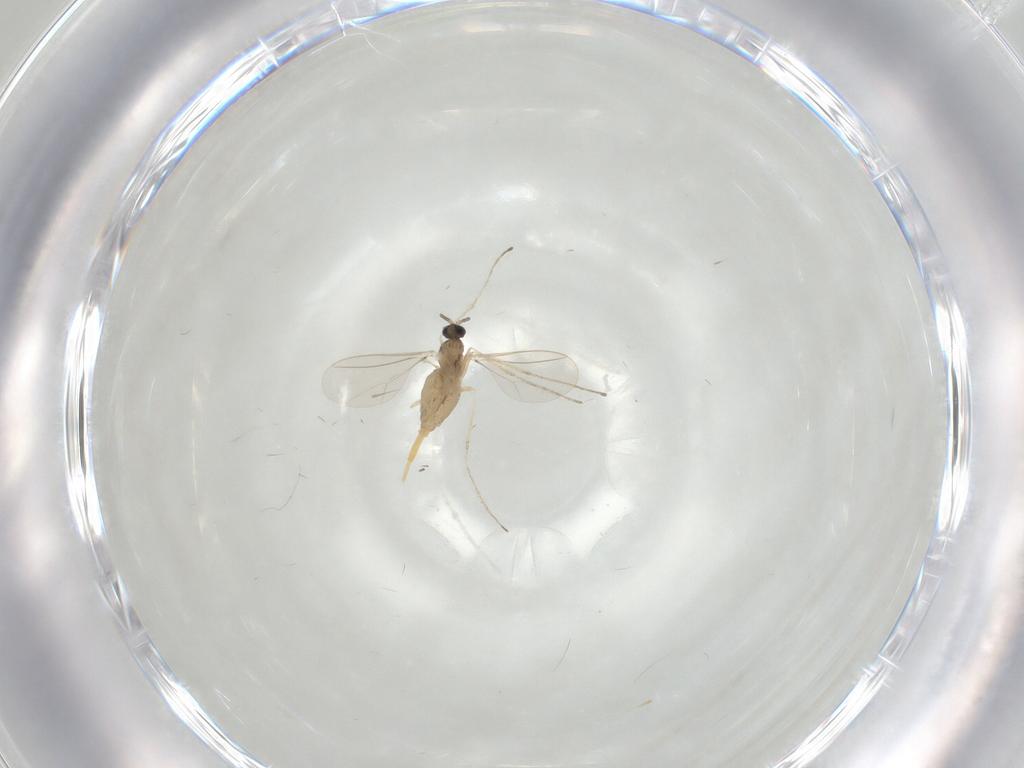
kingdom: Animalia
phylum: Arthropoda
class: Insecta
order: Diptera
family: Cecidomyiidae
